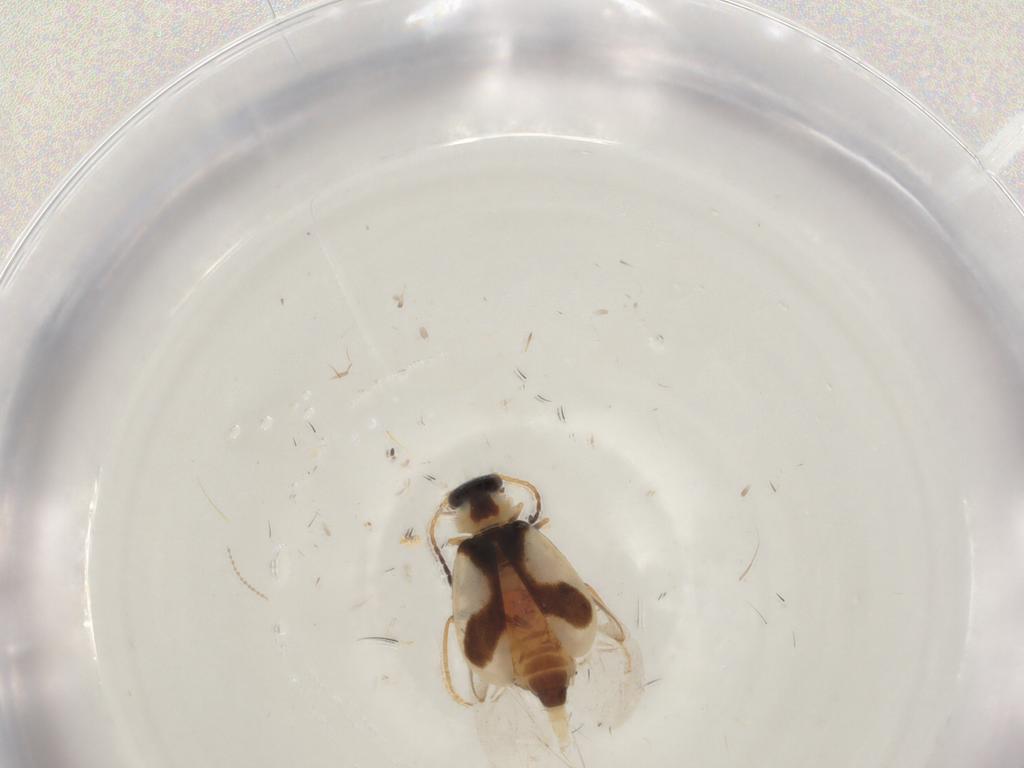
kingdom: Animalia
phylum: Arthropoda
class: Insecta
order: Coleoptera
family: Melyridae
